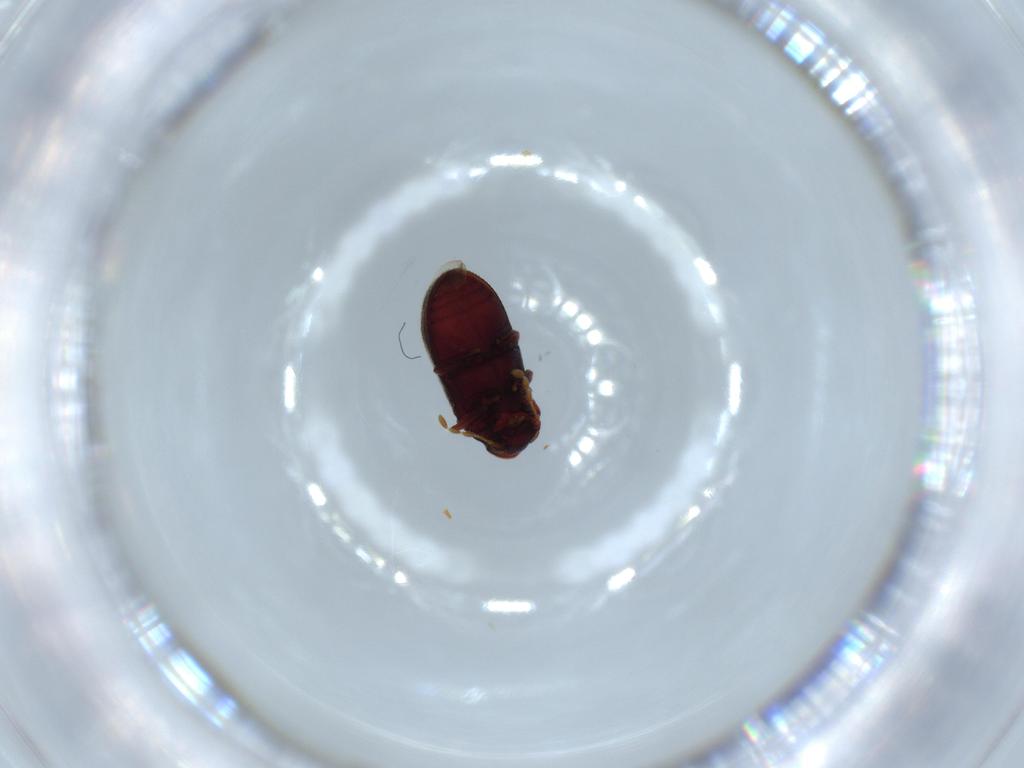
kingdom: Animalia
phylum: Arthropoda
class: Insecta
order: Coleoptera
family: Anobiidae
